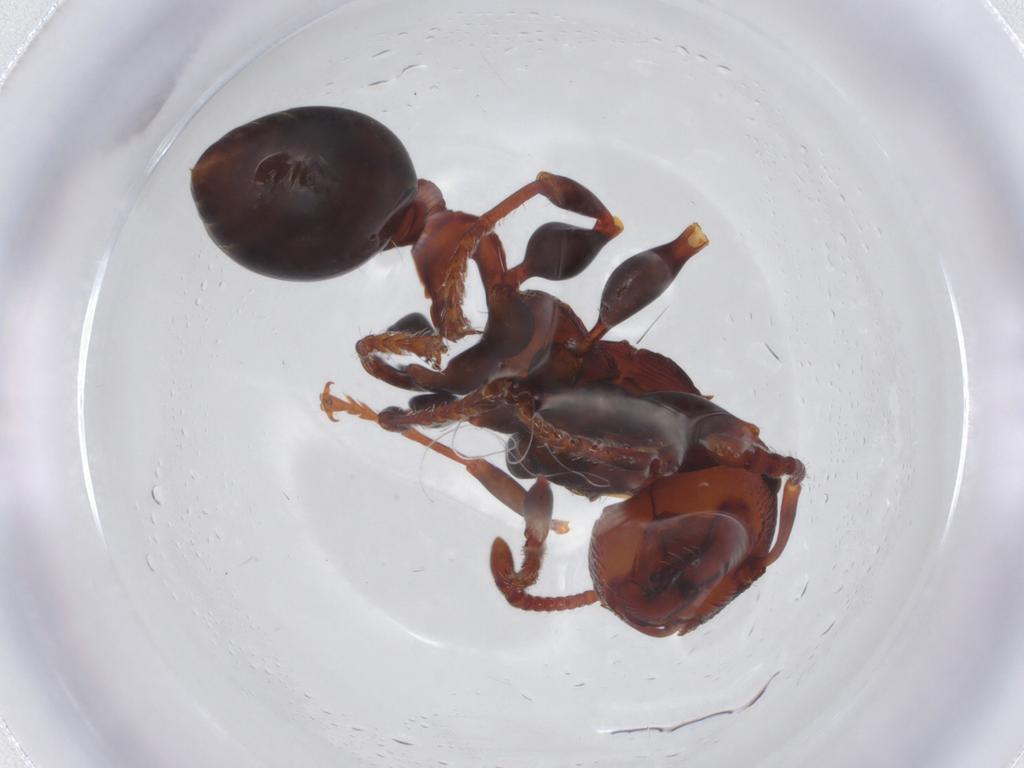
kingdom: Animalia
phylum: Arthropoda
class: Insecta
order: Hymenoptera
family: Formicidae
